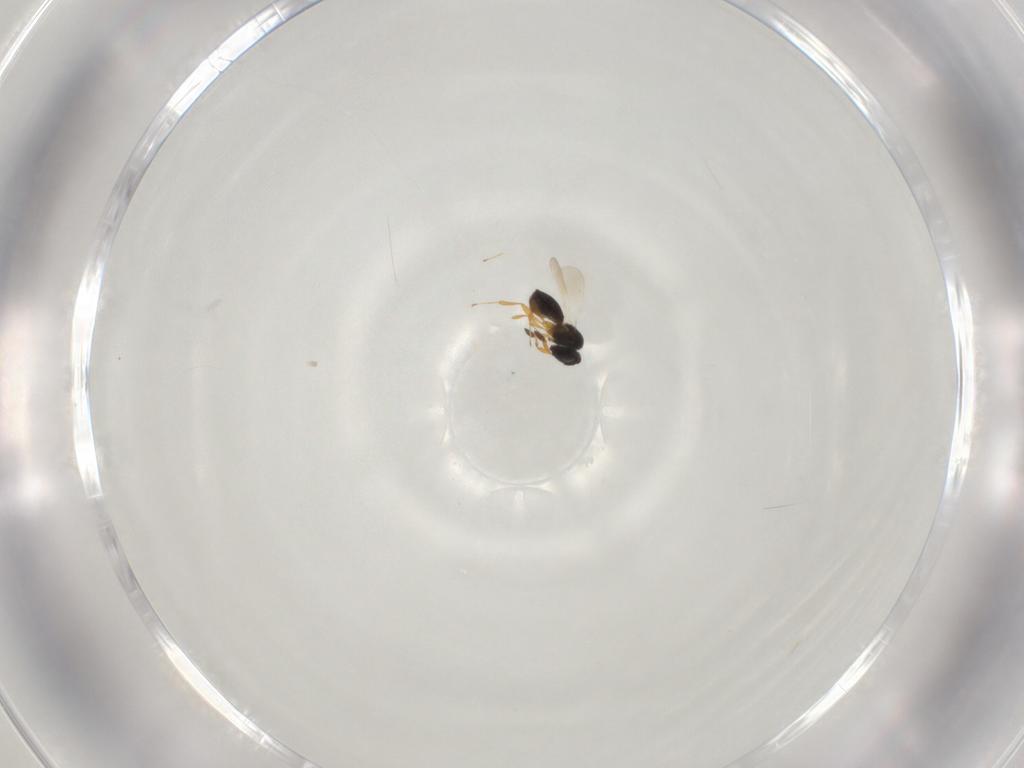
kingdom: Animalia
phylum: Arthropoda
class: Insecta
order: Hymenoptera
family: Platygastridae
